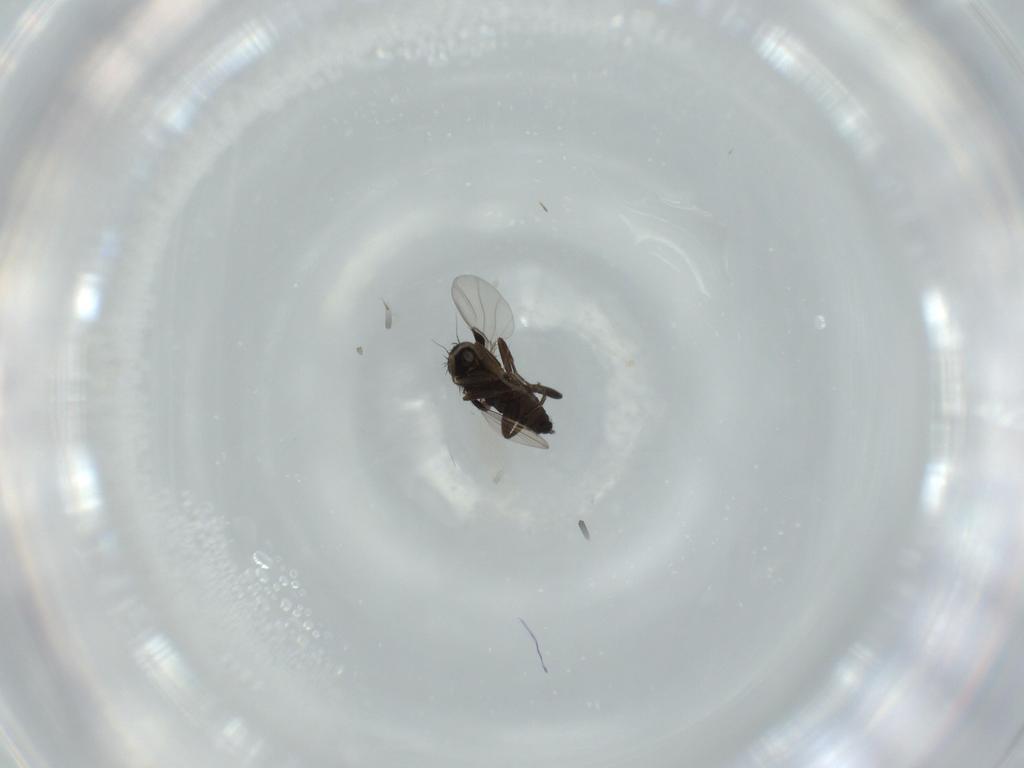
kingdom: Animalia
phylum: Arthropoda
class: Insecta
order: Diptera
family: Phoridae
